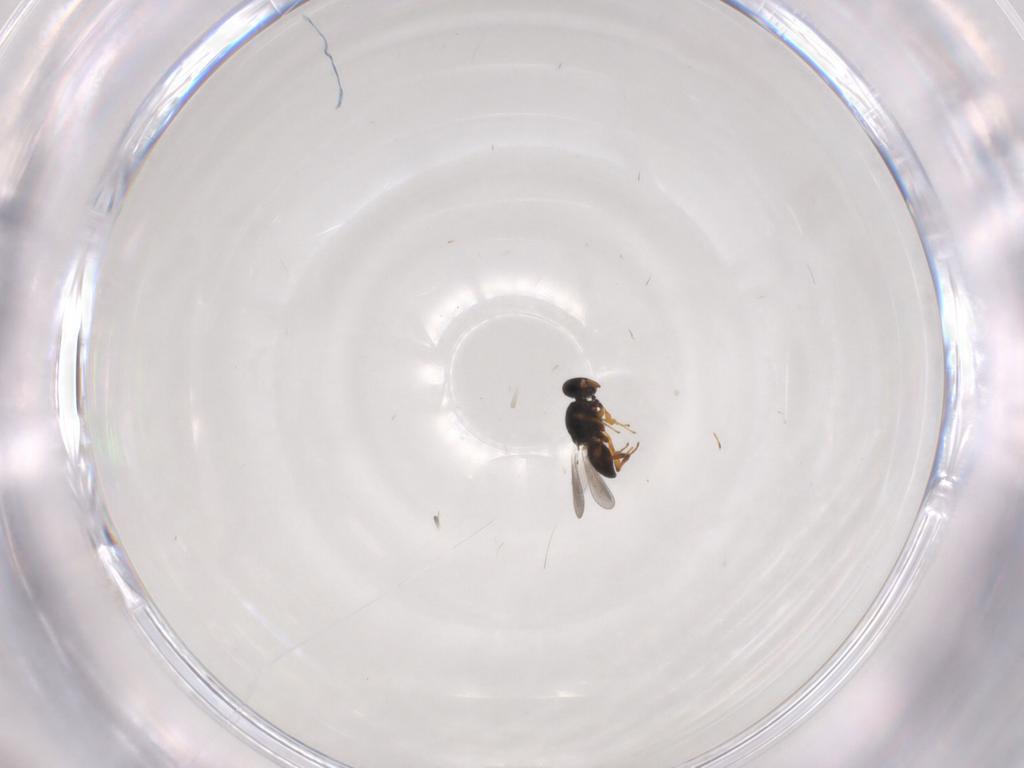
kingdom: Animalia
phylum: Arthropoda
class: Insecta
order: Hymenoptera
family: Formicidae
